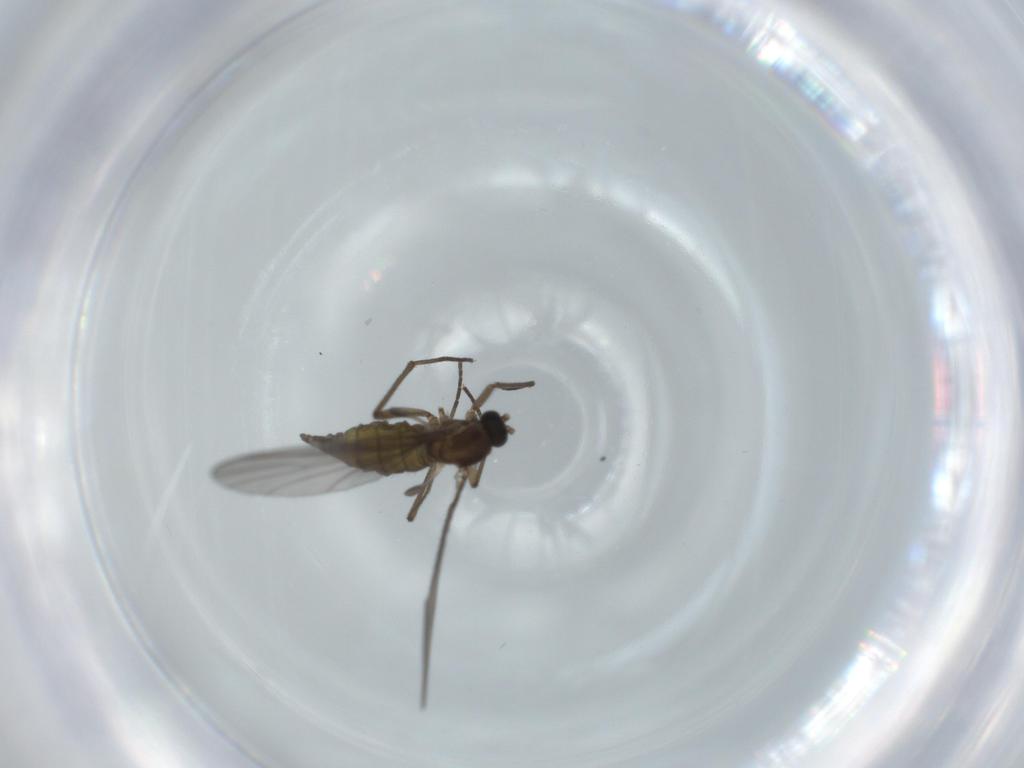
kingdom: Animalia
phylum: Arthropoda
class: Insecta
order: Diptera
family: Sciaridae
